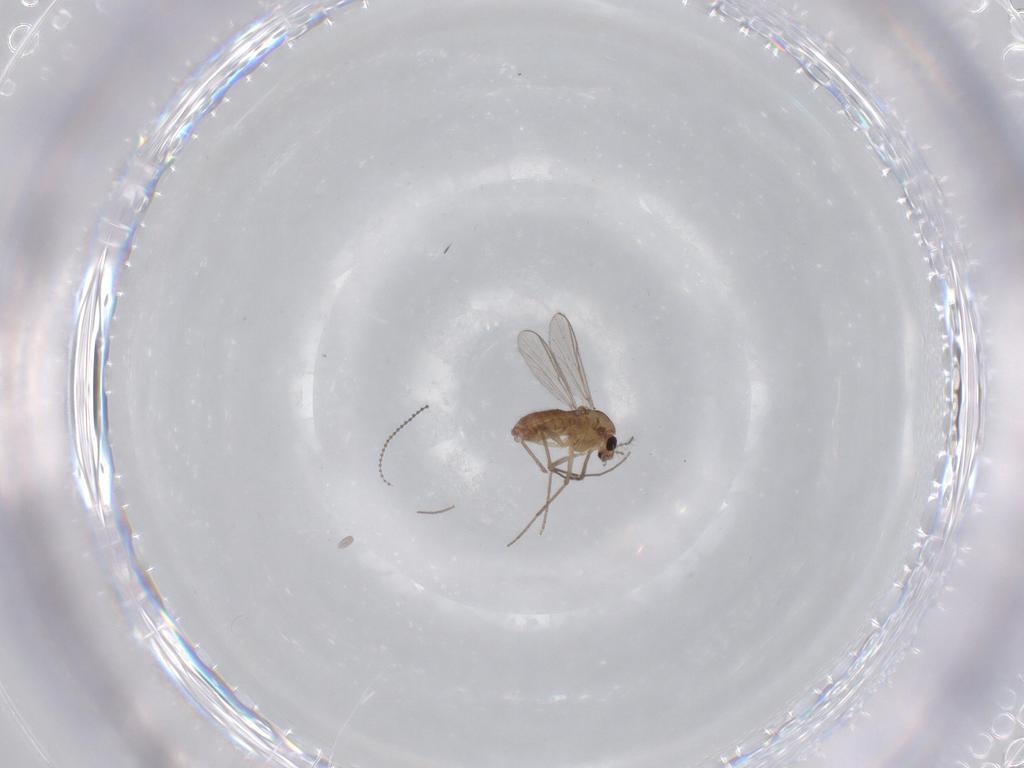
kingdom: Animalia
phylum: Arthropoda
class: Insecta
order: Diptera
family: Chironomidae
